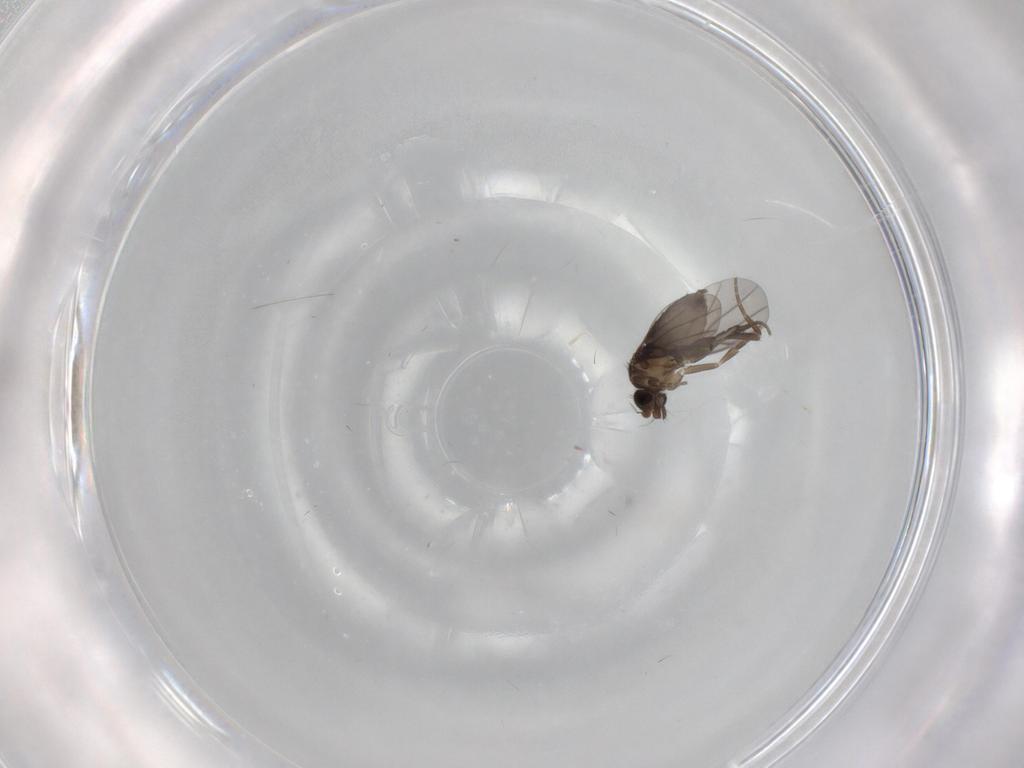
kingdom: Animalia
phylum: Arthropoda
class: Insecta
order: Diptera
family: Phoridae
